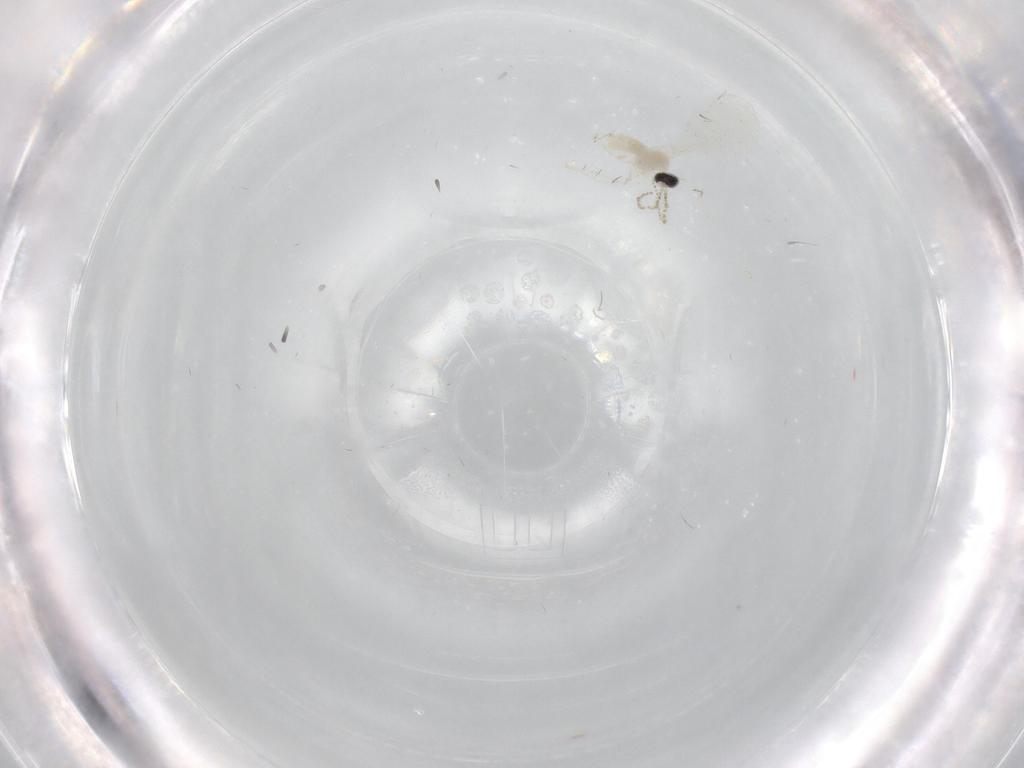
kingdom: Animalia
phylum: Arthropoda
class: Insecta
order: Diptera
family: Cecidomyiidae
